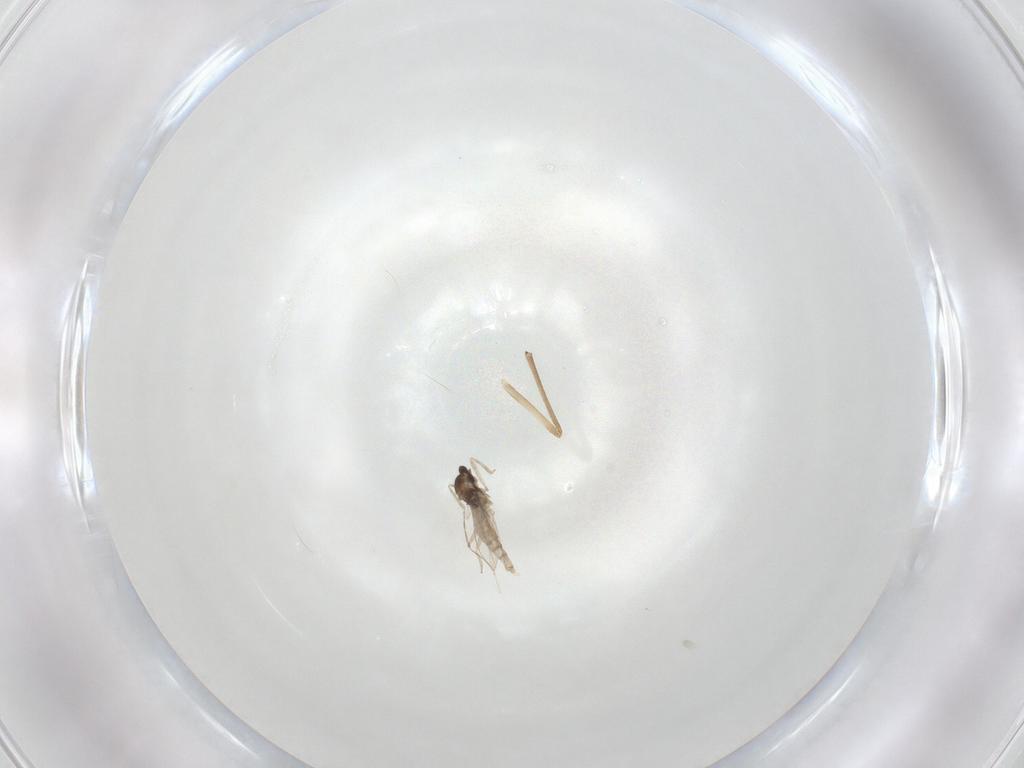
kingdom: Animalia
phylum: Arthropoda
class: Insecta
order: Diptera
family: Cecidomyiidae
